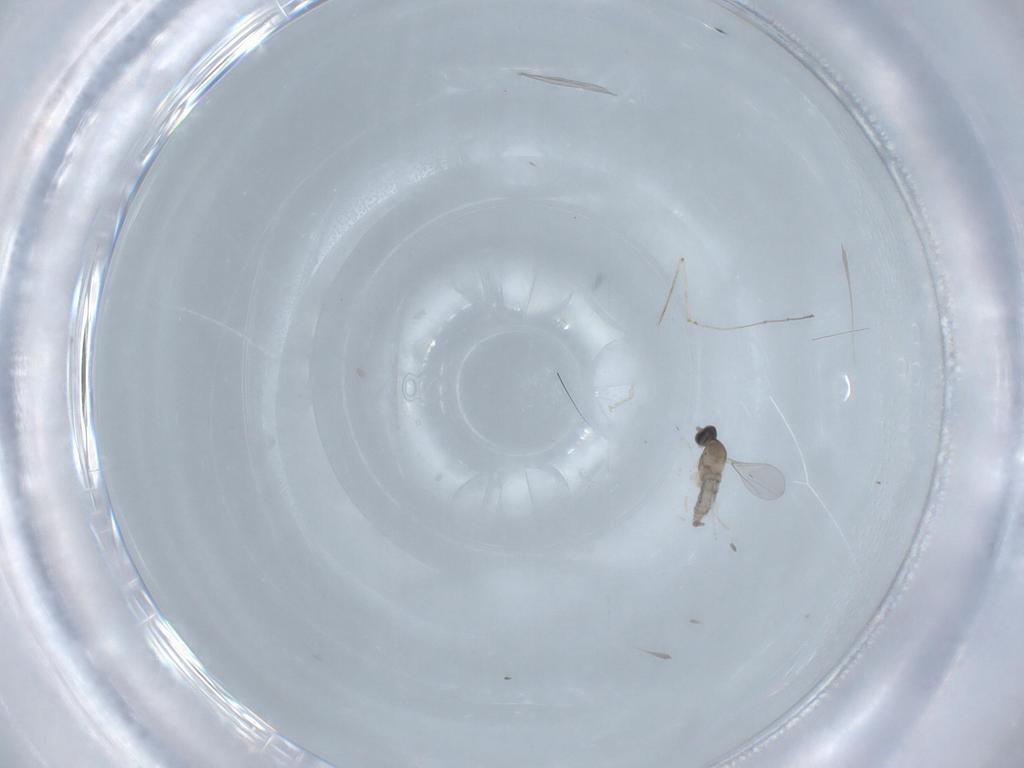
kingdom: Animalia
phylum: Arthropoda
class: Insecta
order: Diptera
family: Cecidomyiidae
